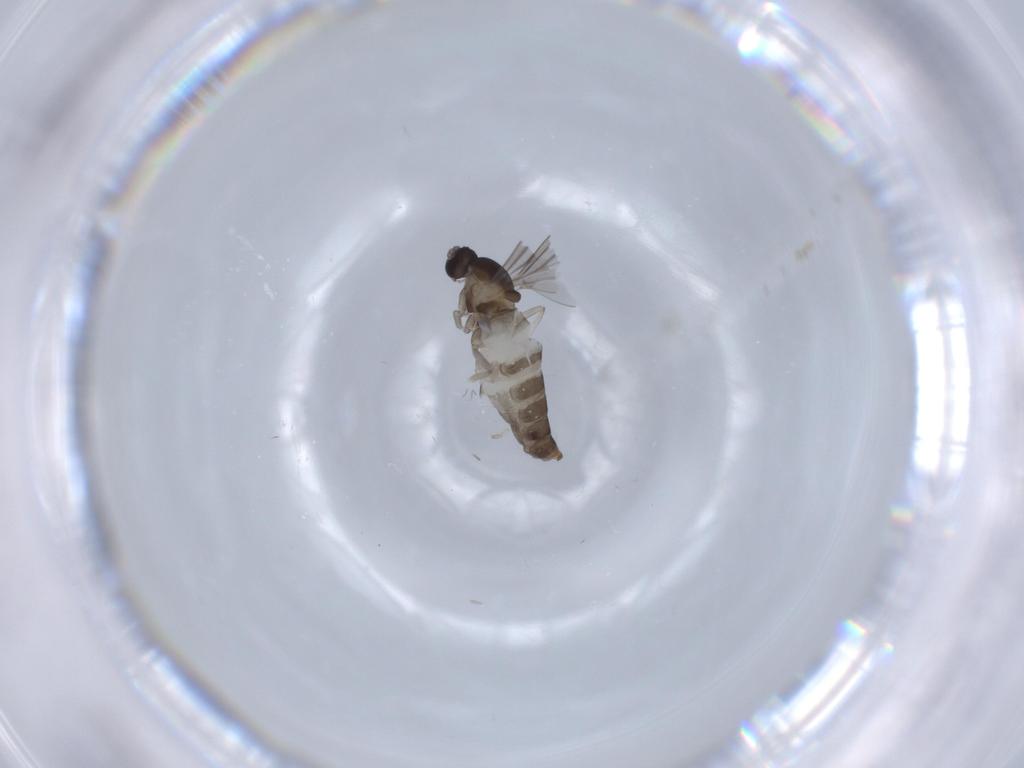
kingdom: Animalia
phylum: Arthropoda
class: Insecta
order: Diptera
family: Cecidomyiidae
